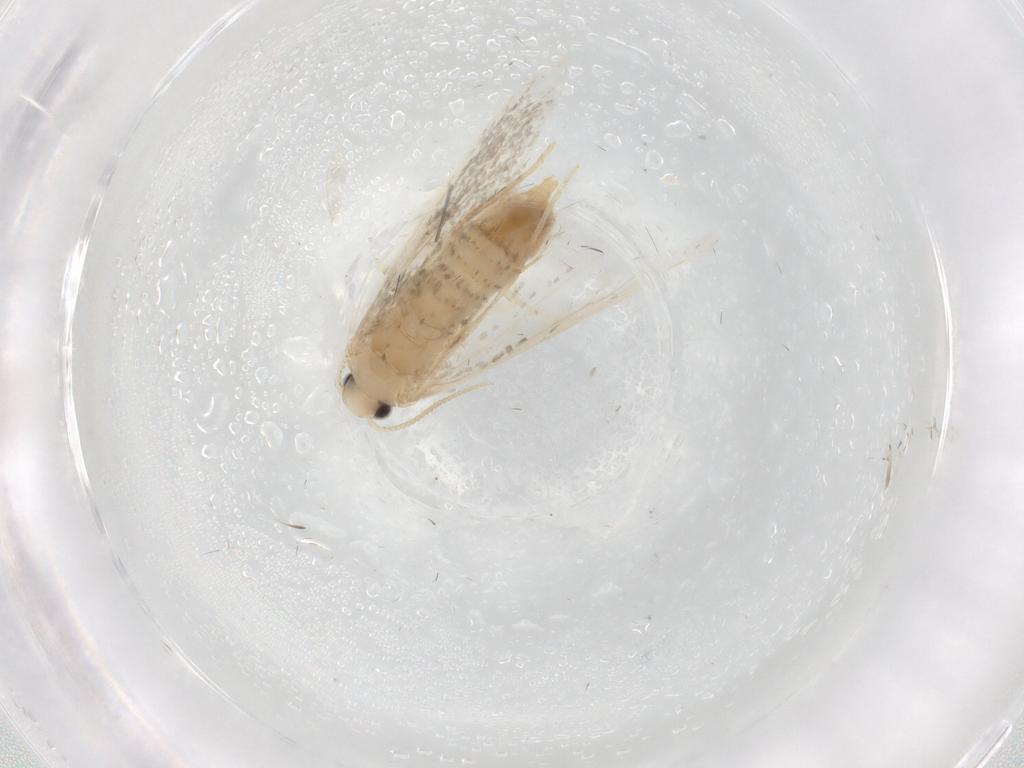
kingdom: Animalia
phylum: Arthropoda
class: Insecta
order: Lepidoptera
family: Psychidae
